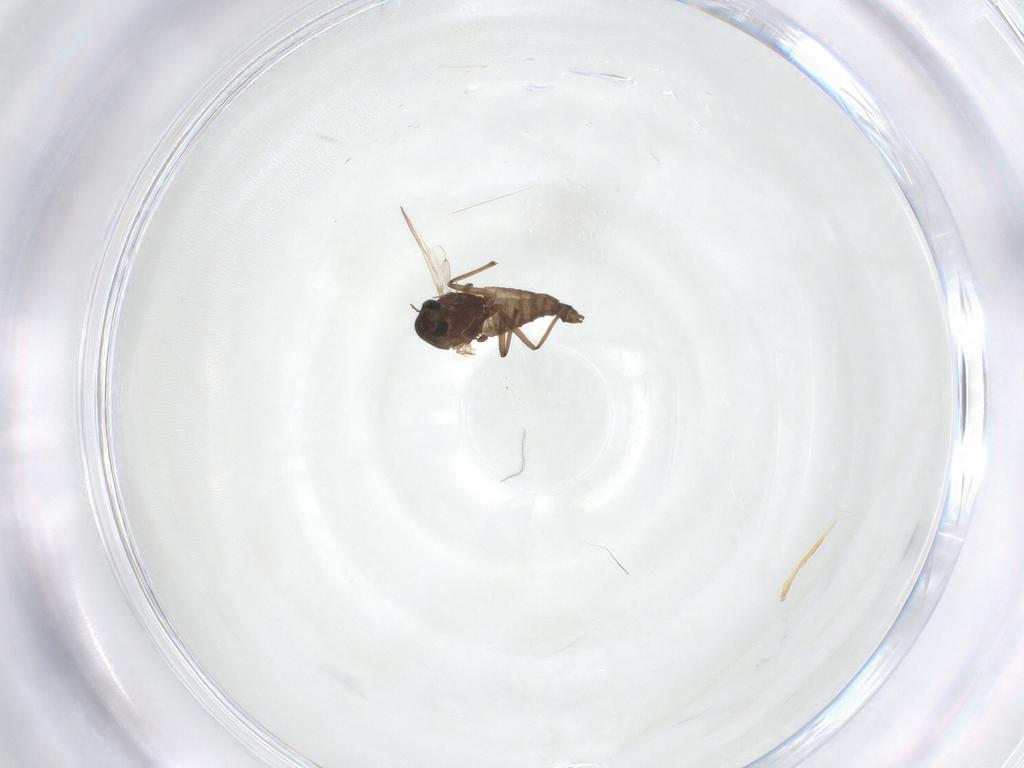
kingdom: Animalia
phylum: Arthropoda
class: Insecta
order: Diptera
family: Chironomidae
